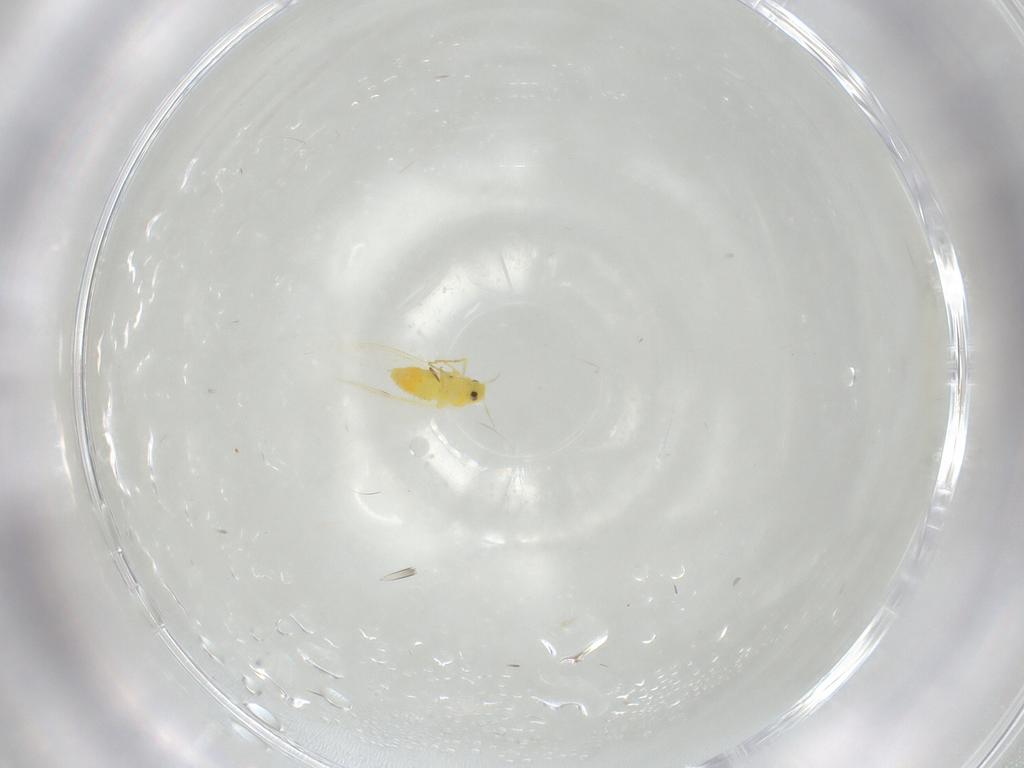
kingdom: Animalia
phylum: Arthropoda
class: Insecta
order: Hemiptera
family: Aleyrodidae
